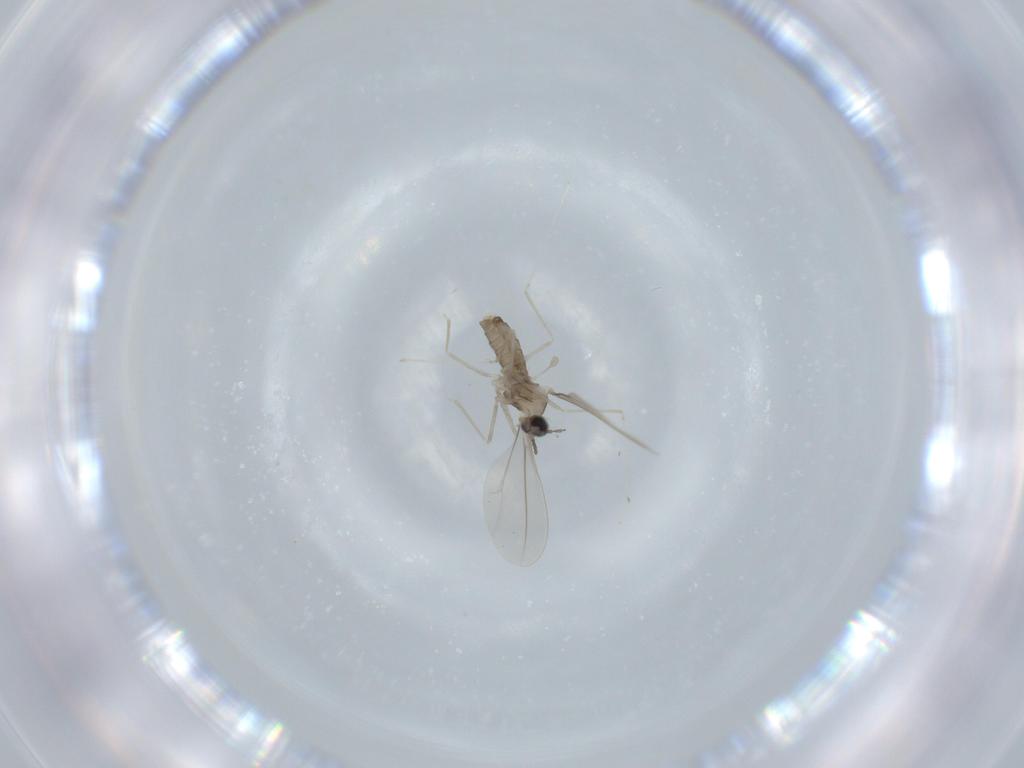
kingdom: Animalia
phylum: Arthropoda
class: Insecta
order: Diptera
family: Cecidomyiidae
